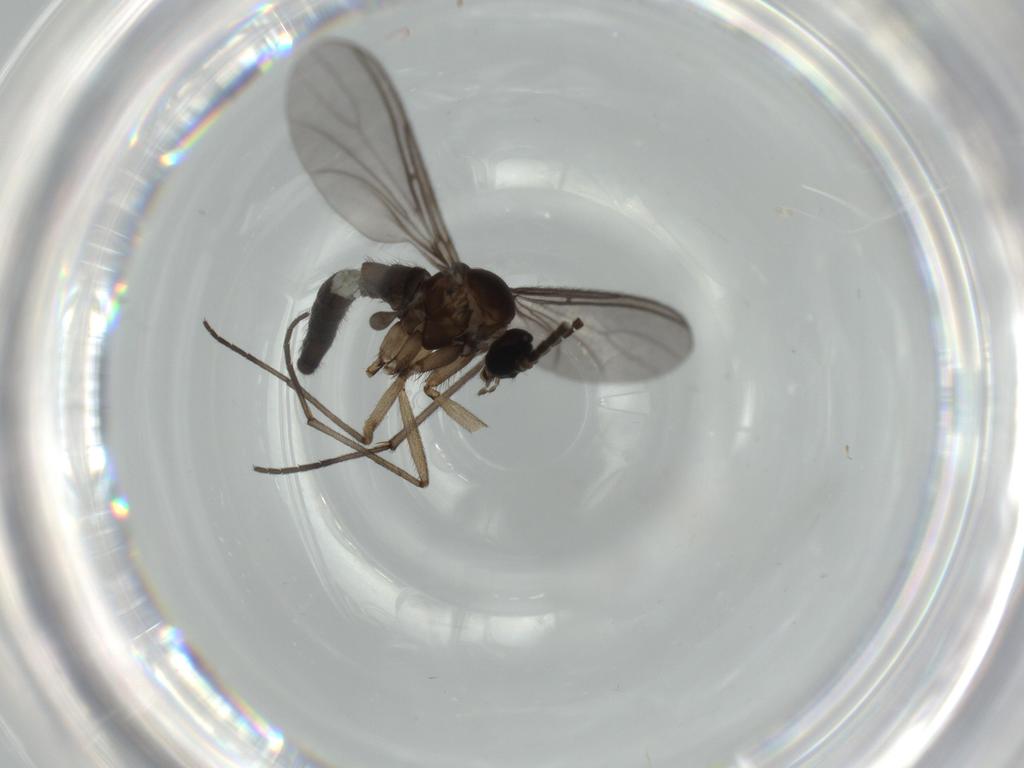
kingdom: Animalia
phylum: Arthropoda
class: Insecta
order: Diptera
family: Sciaridae
